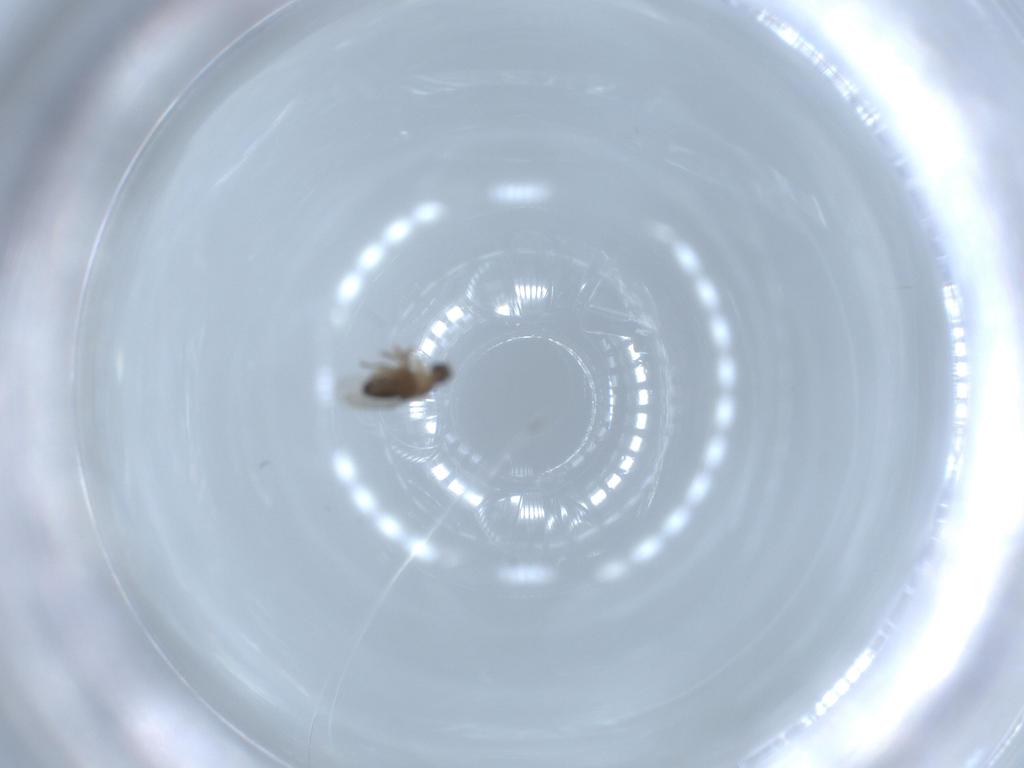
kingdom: Animalia
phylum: Arthropoda
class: Insecta
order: Diptera
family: Phoridae
